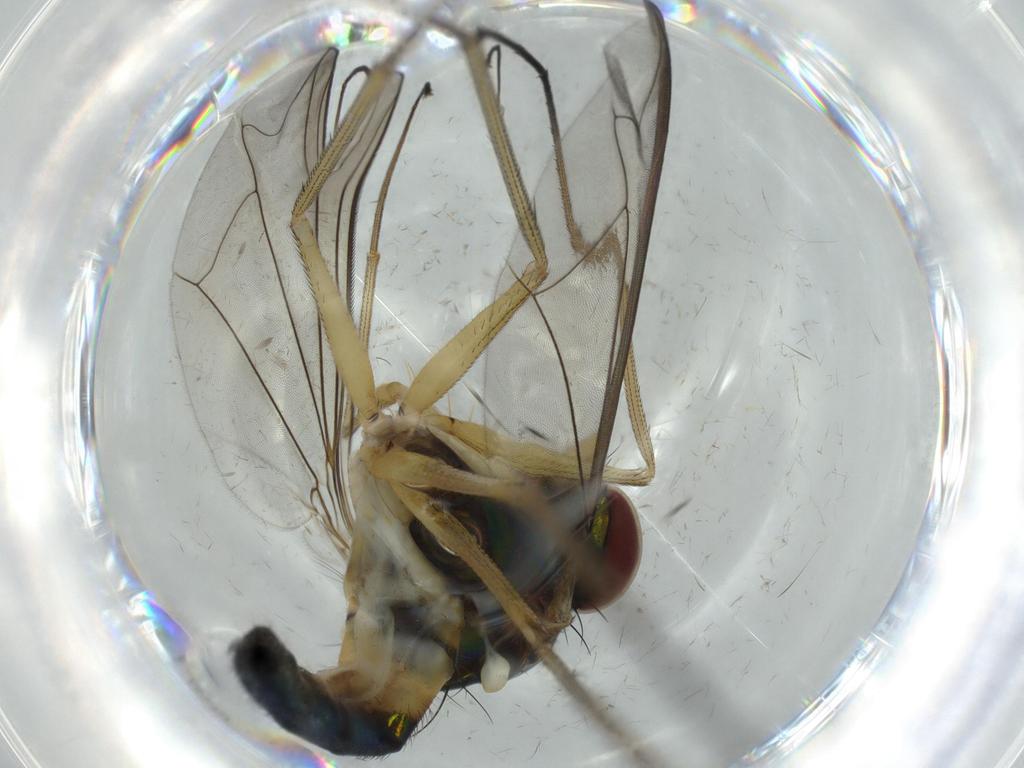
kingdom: Animalia
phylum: Arthropoda
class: Insecta
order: Diptera
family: Dolichopodidae
